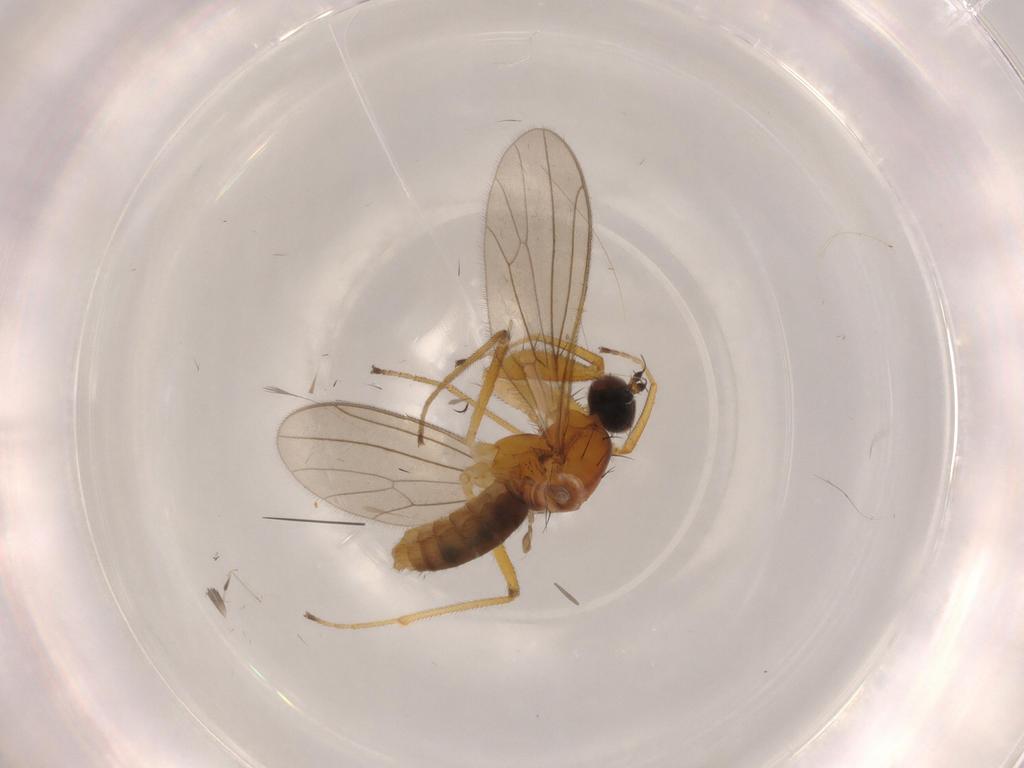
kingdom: Animalia
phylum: Arthropoda
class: Insecta
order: Diptera
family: Empididae
